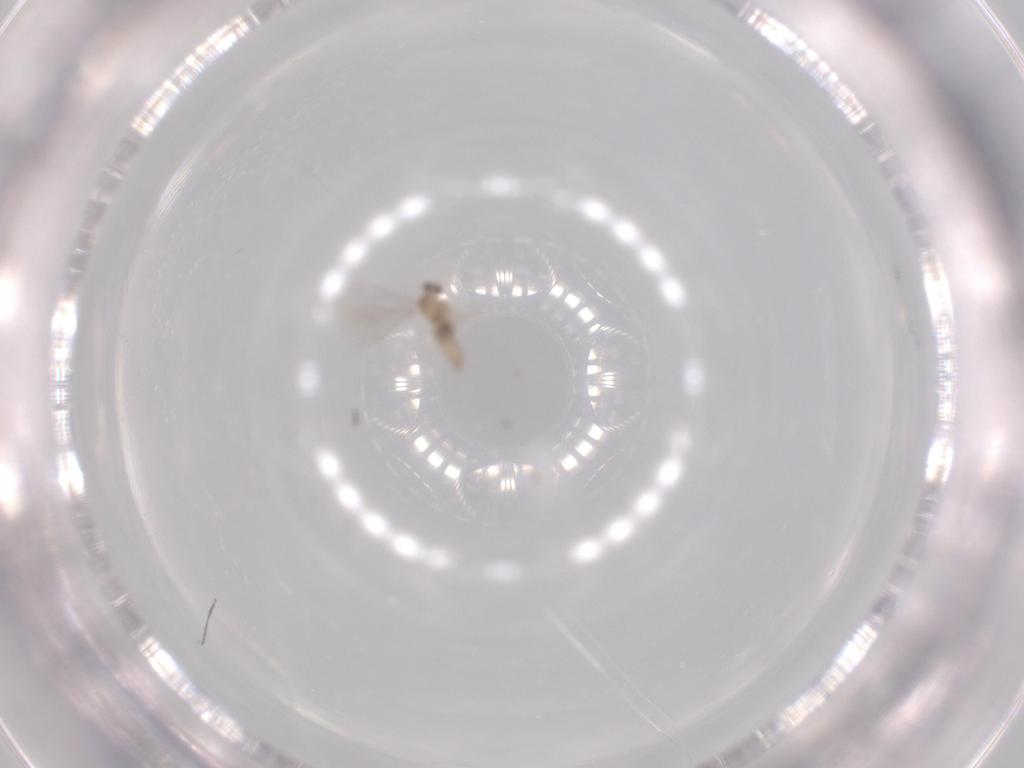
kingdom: Animalia
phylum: Arthropoda
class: Insecta
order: Diptera
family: Cecidomyiidae
